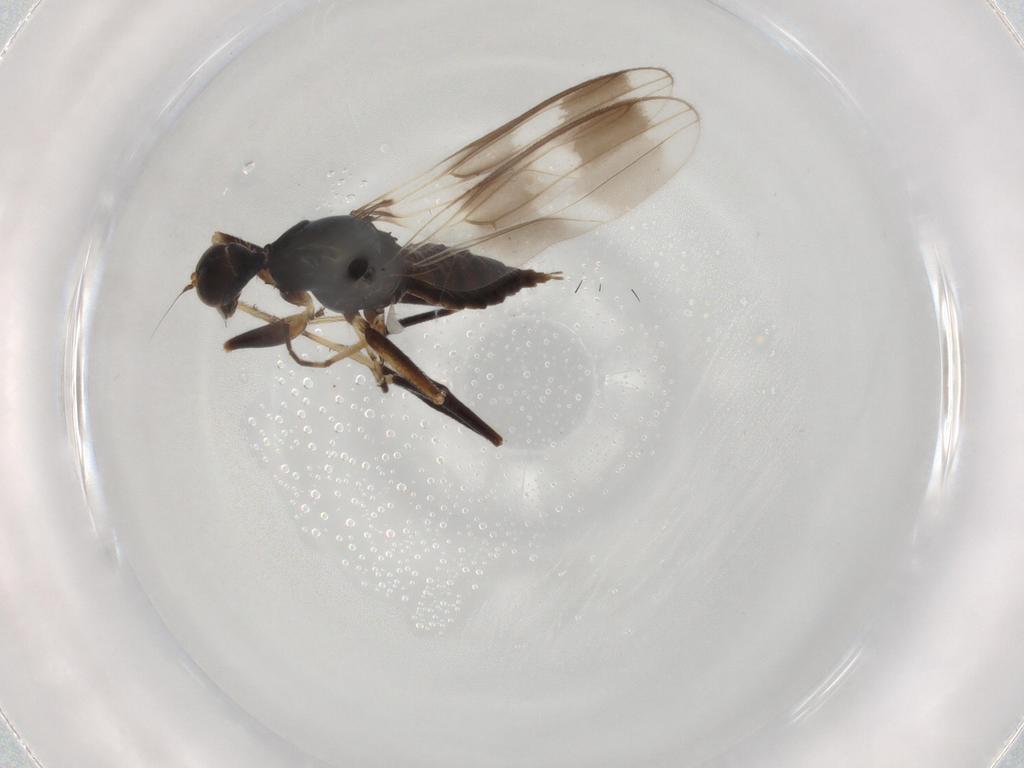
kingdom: Animalia
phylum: Arthropoda
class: Insecta
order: Diptera
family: Hybotidae
